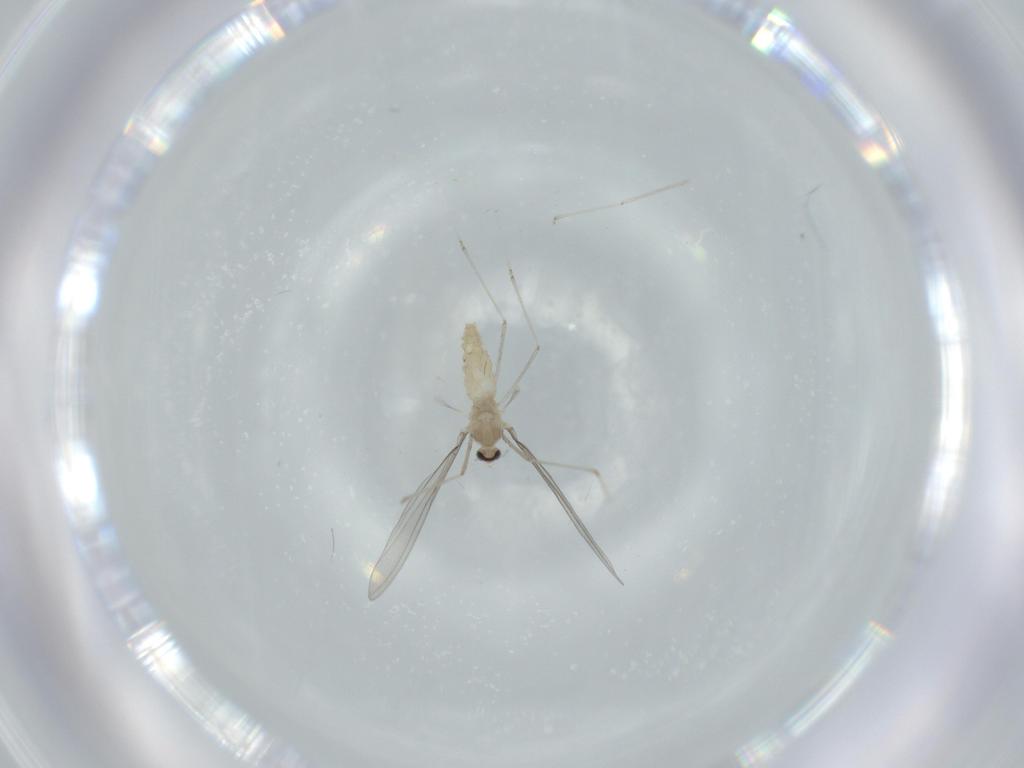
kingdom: Animalia
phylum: Arthropoda
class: Insecta
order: Diptera
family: Cecidomyiidae
